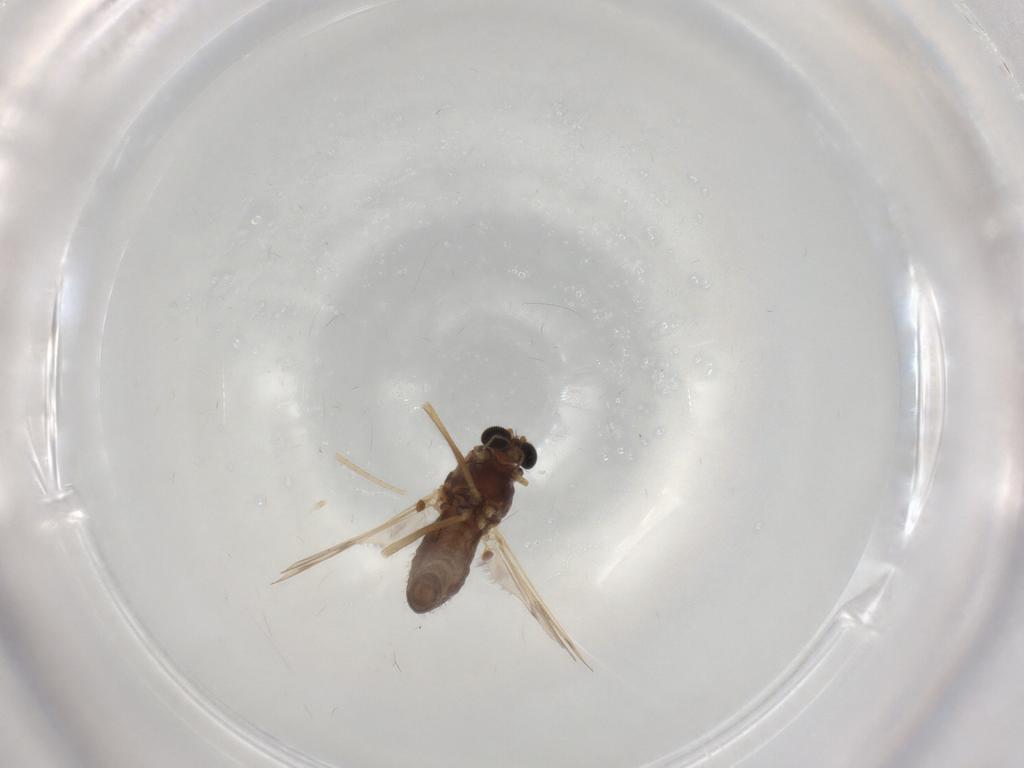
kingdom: Animalia
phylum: Arthropoda
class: Insecta
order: Diptera
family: Chironomidae
